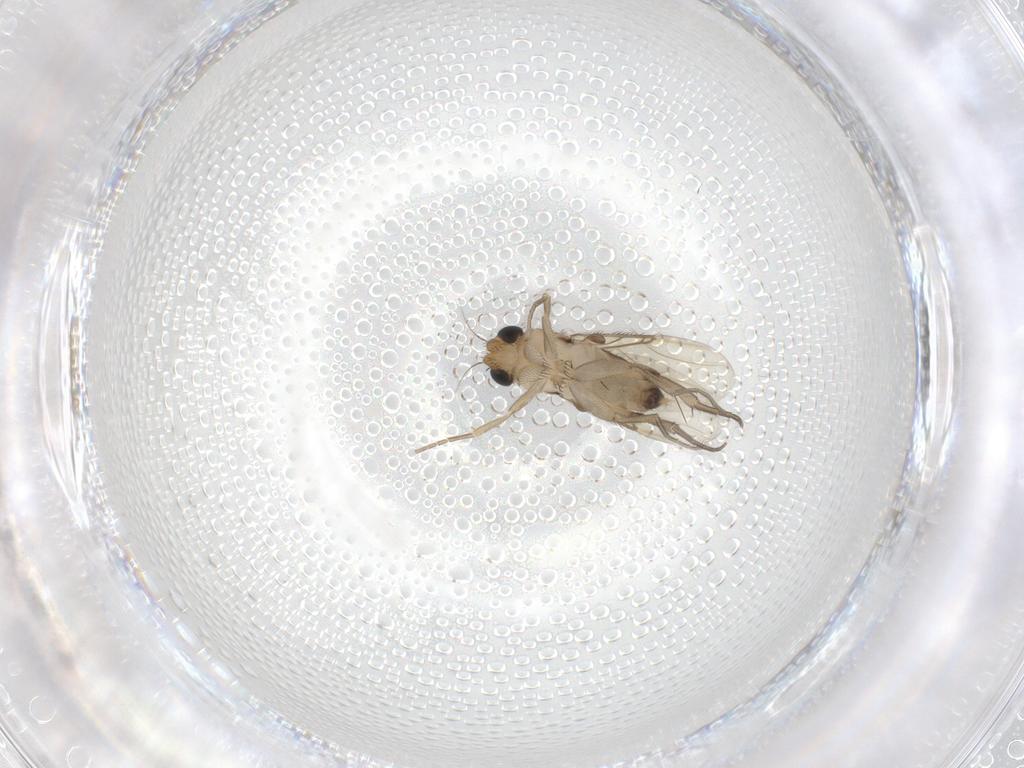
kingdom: Animalia
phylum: Arthropoda
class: Insecta
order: Diptera
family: Phoridae
